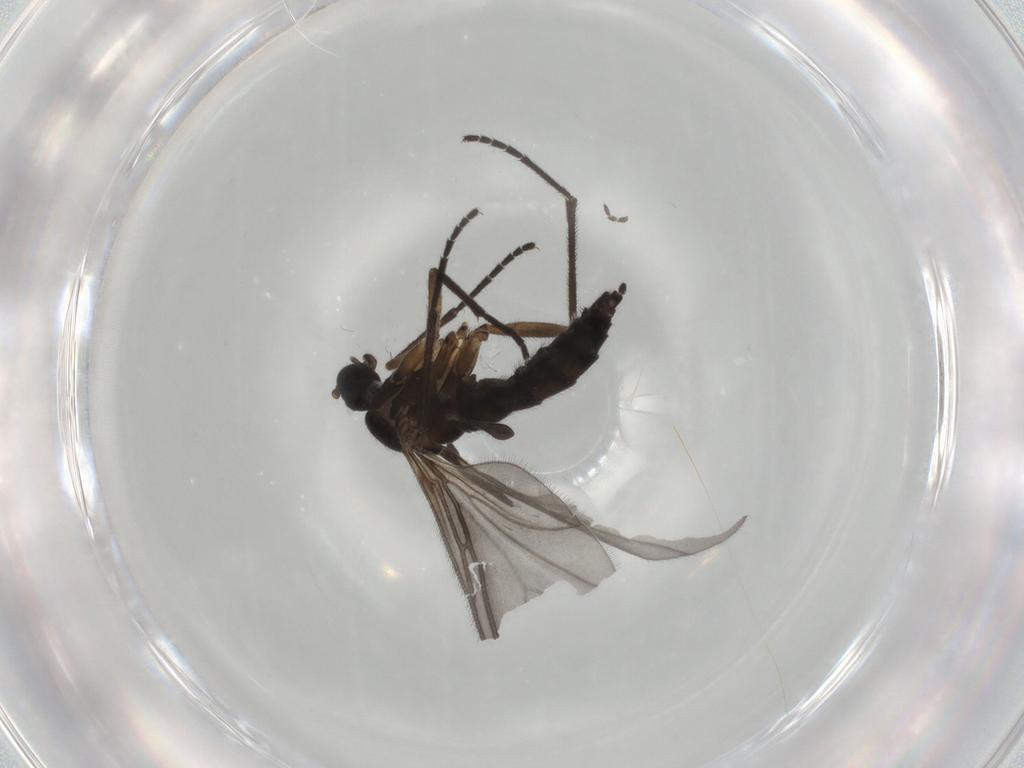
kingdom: Animalia
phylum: Arthropoda
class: Insecta
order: Diptera
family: Sciaridae
